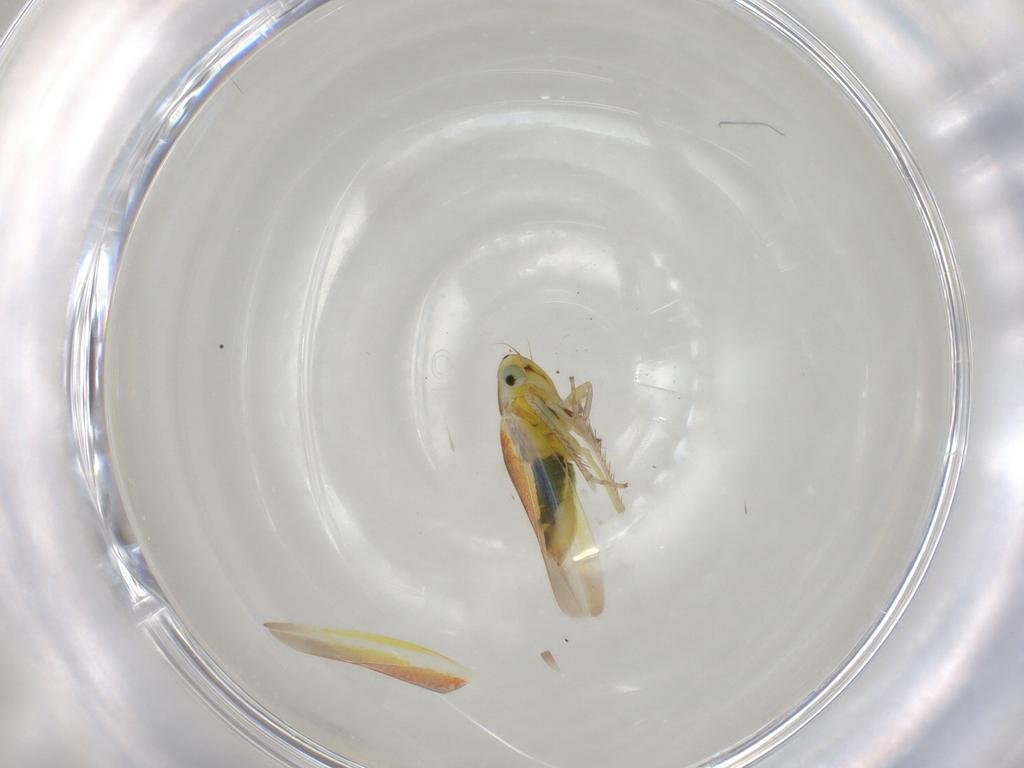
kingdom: Animalia
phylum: Arthropoda
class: Insecta
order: Hemiptera
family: Cicadellidae
